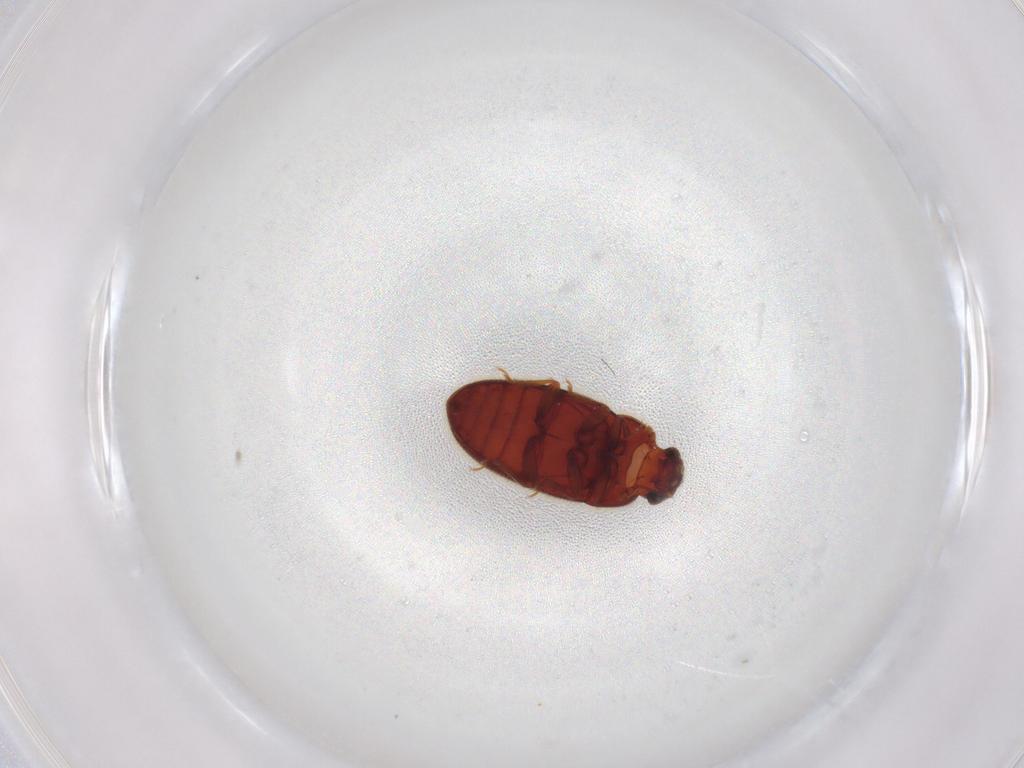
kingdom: Animalia
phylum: Arthropoda
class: Insecta
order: Coleoptera
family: Biphyllidae
